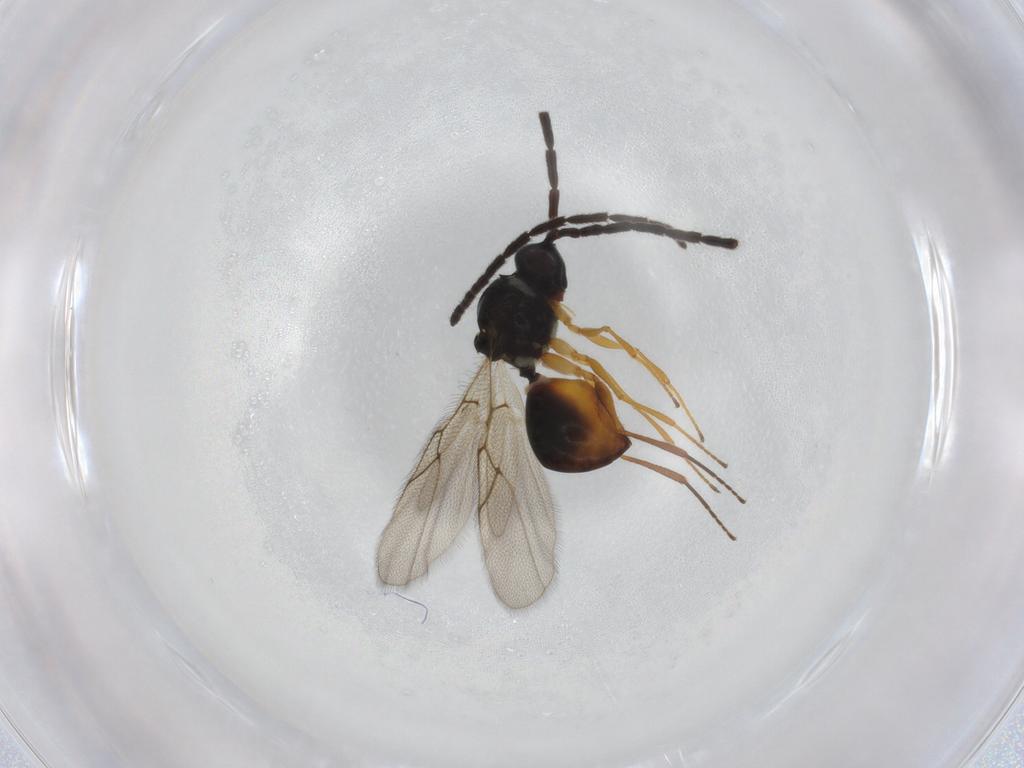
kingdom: Animalia
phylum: Arthropoda
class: Insecta
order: Hymenoptera
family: Figitidae
